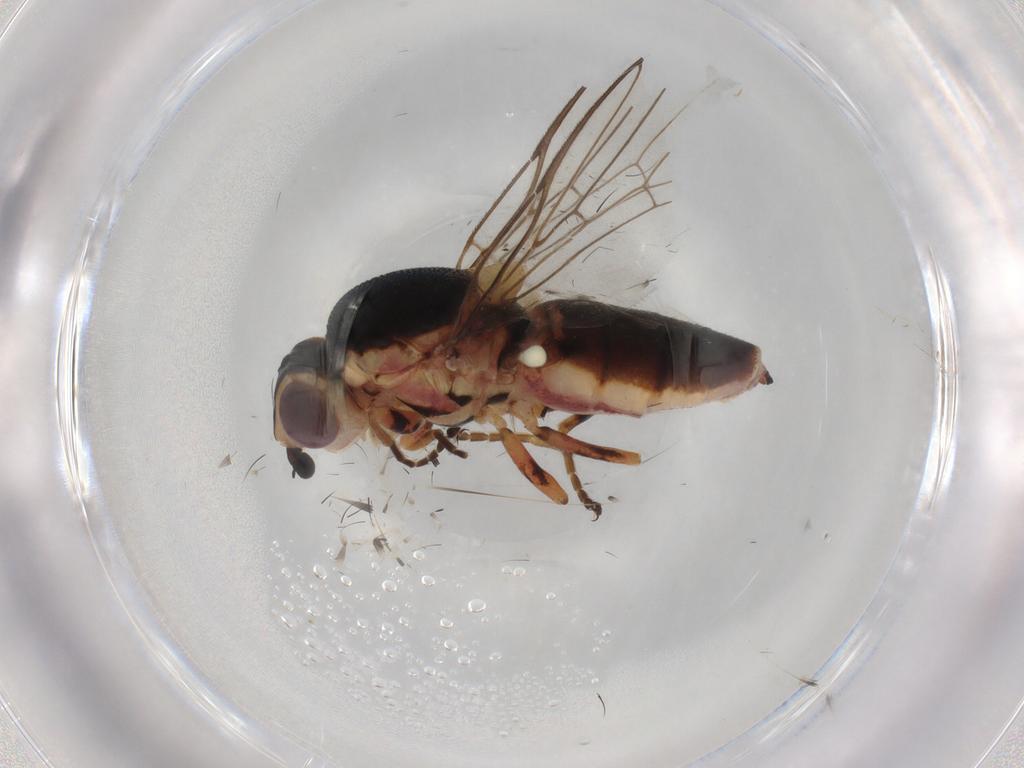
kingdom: Animalia
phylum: Arthropoda
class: Insecta
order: Diptera
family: Chloropidae
